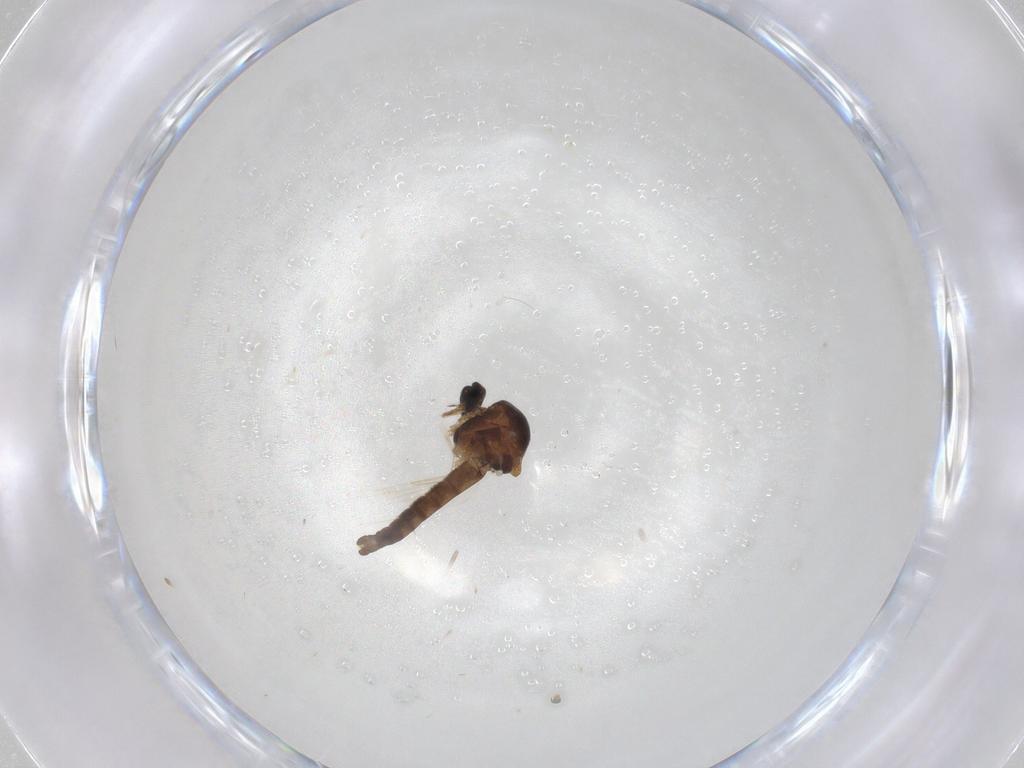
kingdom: Animalia
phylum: Arthropoda
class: Insecta
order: Diptera
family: Ceratopogonidae
